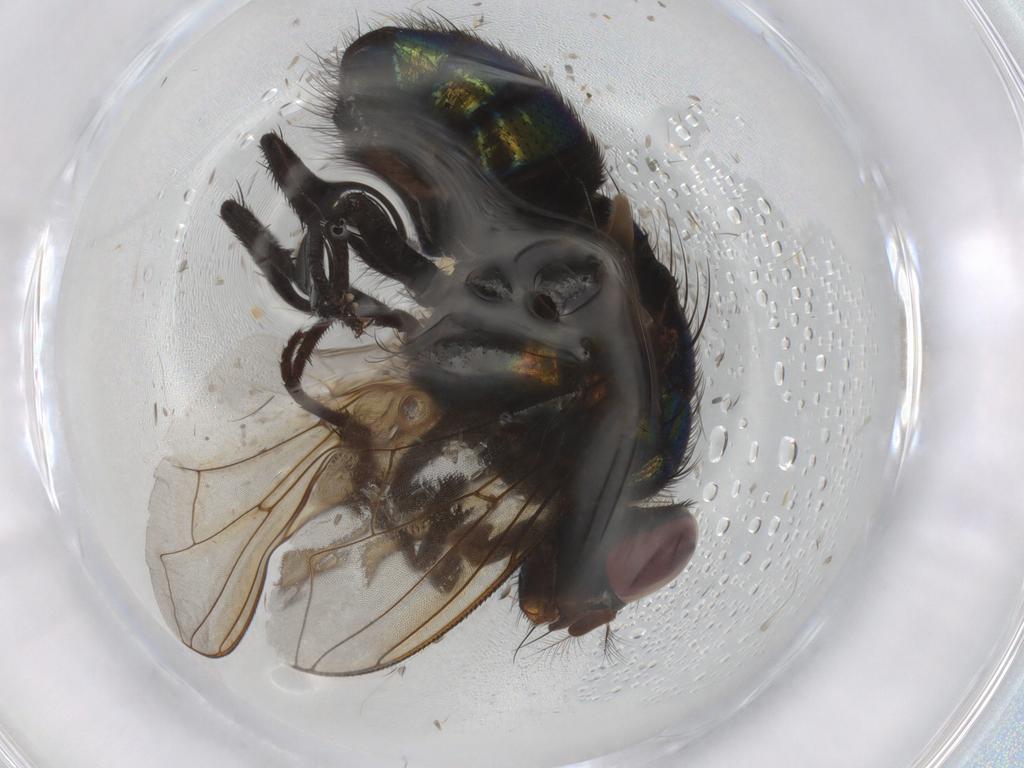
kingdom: Animalia
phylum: Arthropoda
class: Insecta
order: Diptera
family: Calliphoridae
